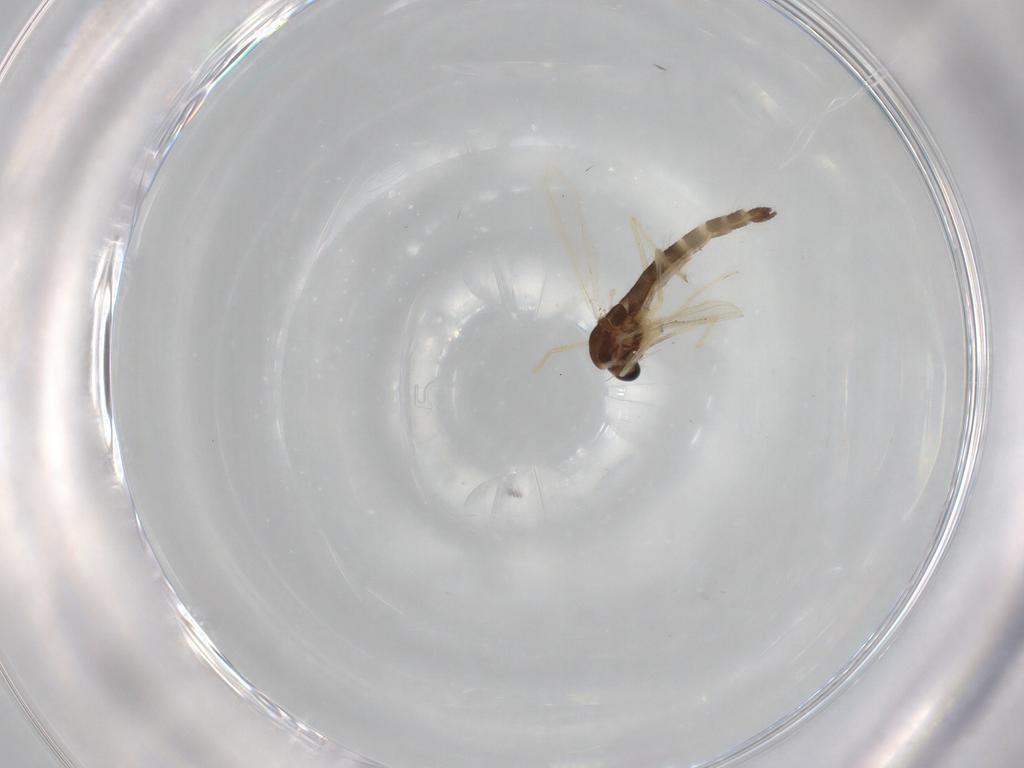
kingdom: Animalia
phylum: Arthropoda
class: Insecta
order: Diptera
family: Chironomidae
